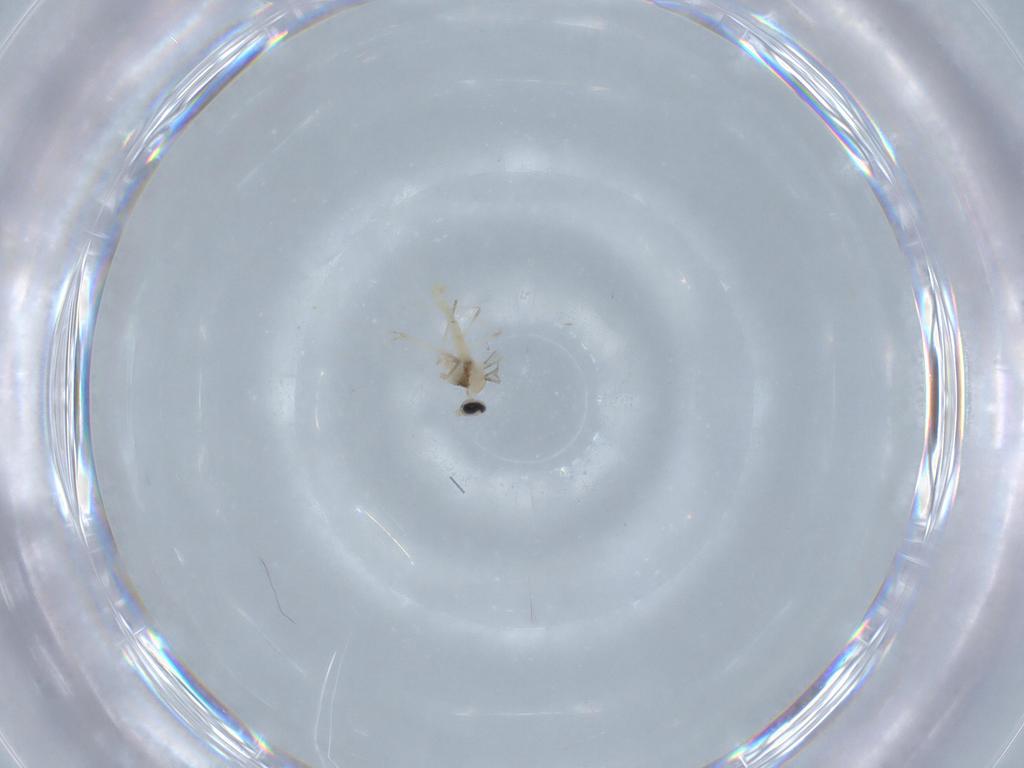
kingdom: Animalia
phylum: Arthropoda
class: Insecta
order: Diptera
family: Cecidomyiidae
